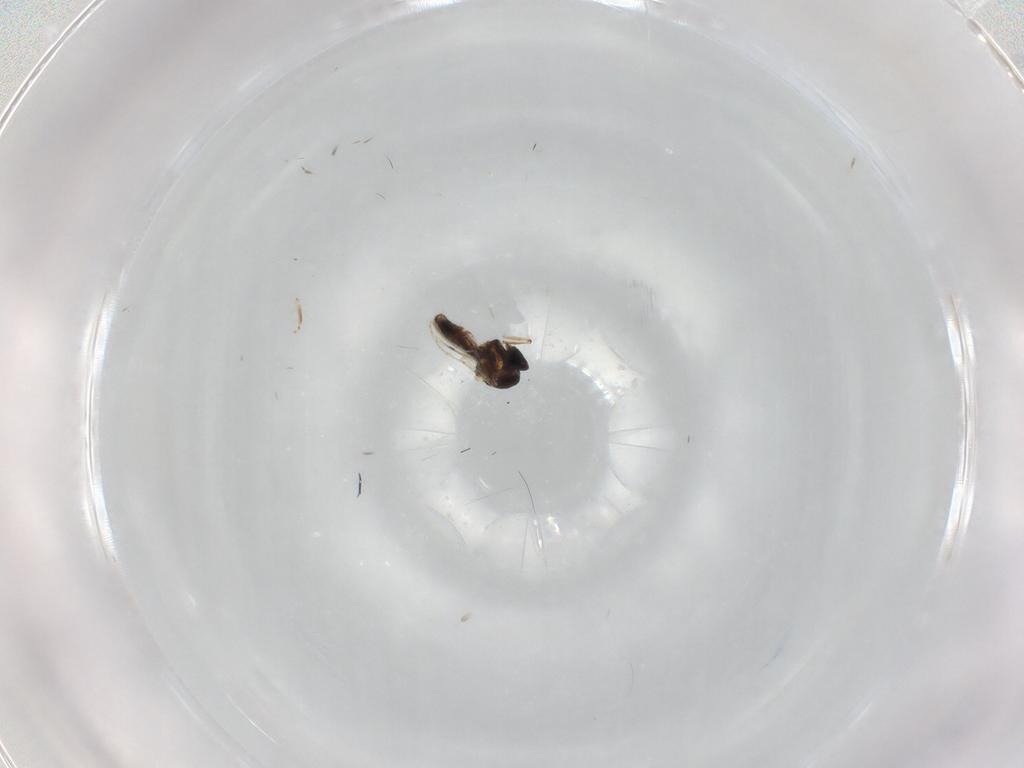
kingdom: Animalia
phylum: Arthropoda
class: Insecta
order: Diptera
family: Ceratopogonidae
